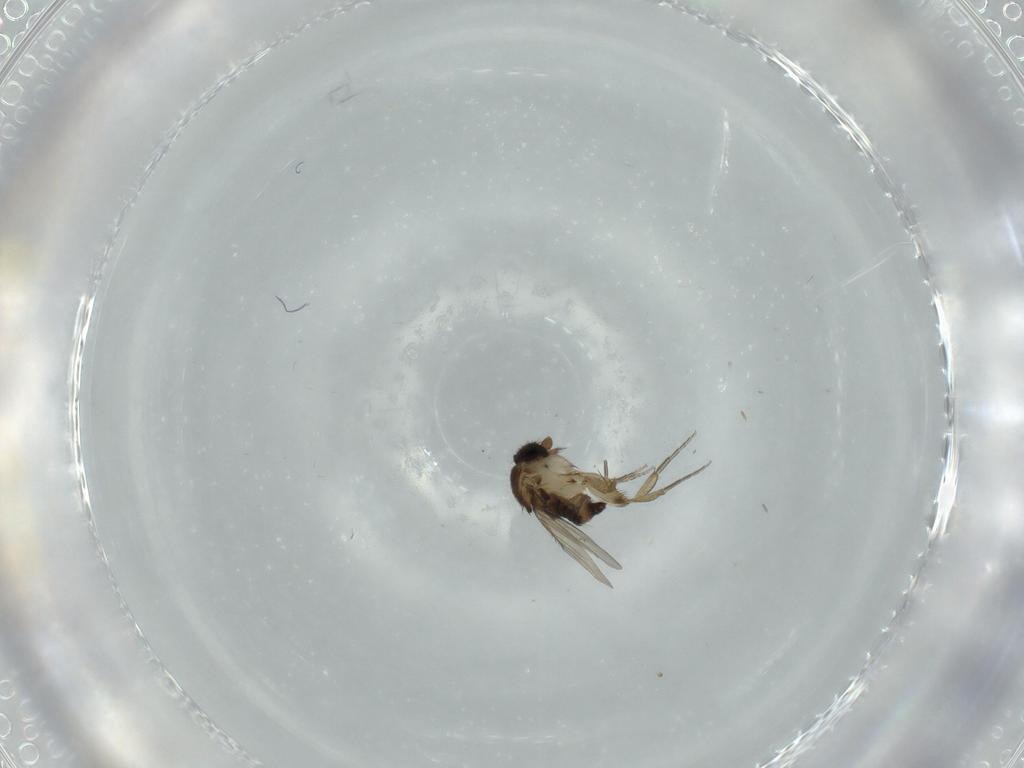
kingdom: Animalia
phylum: Arthropoda
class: Insecta
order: Diptera
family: Phoridae
